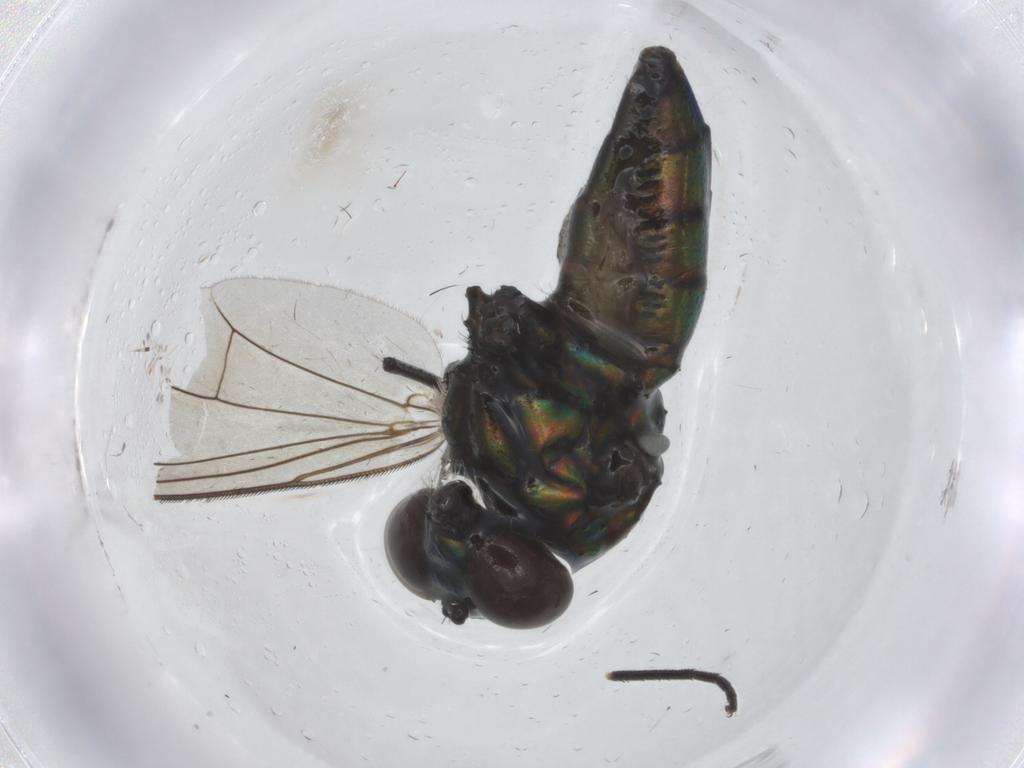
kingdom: Animalia
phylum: Arthropoda
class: Insecta
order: Diptera
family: Dolichopodidae
